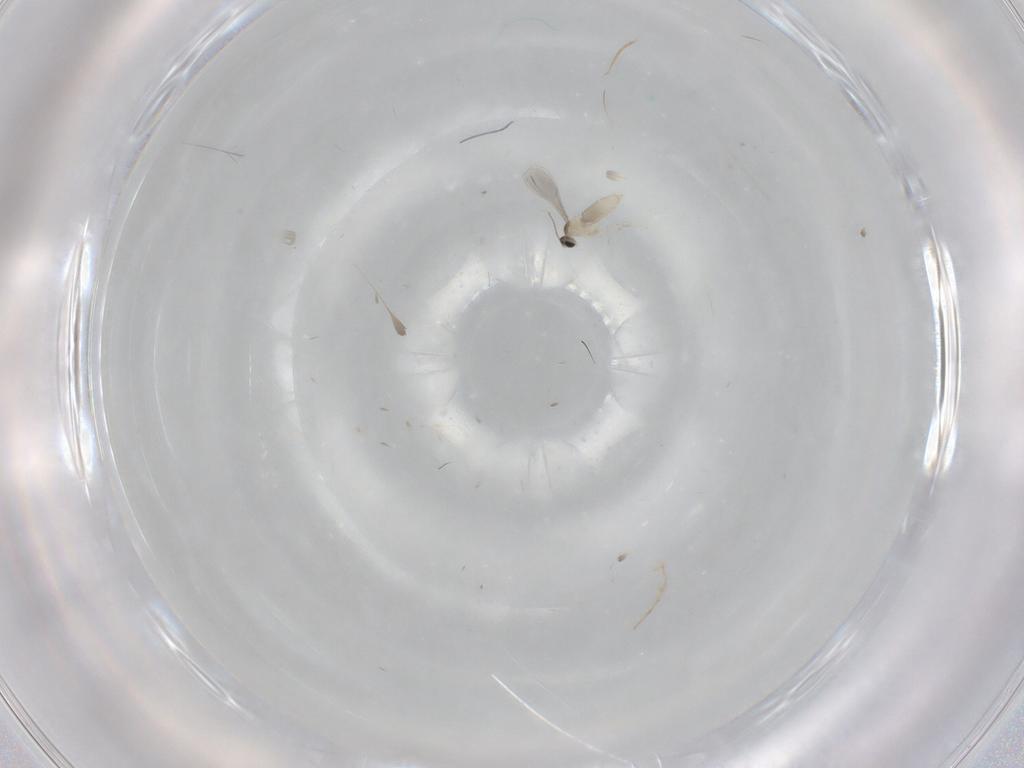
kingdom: Animalia
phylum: Arthropoda
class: Insecta
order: Diptera
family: Cecidomyiidae
